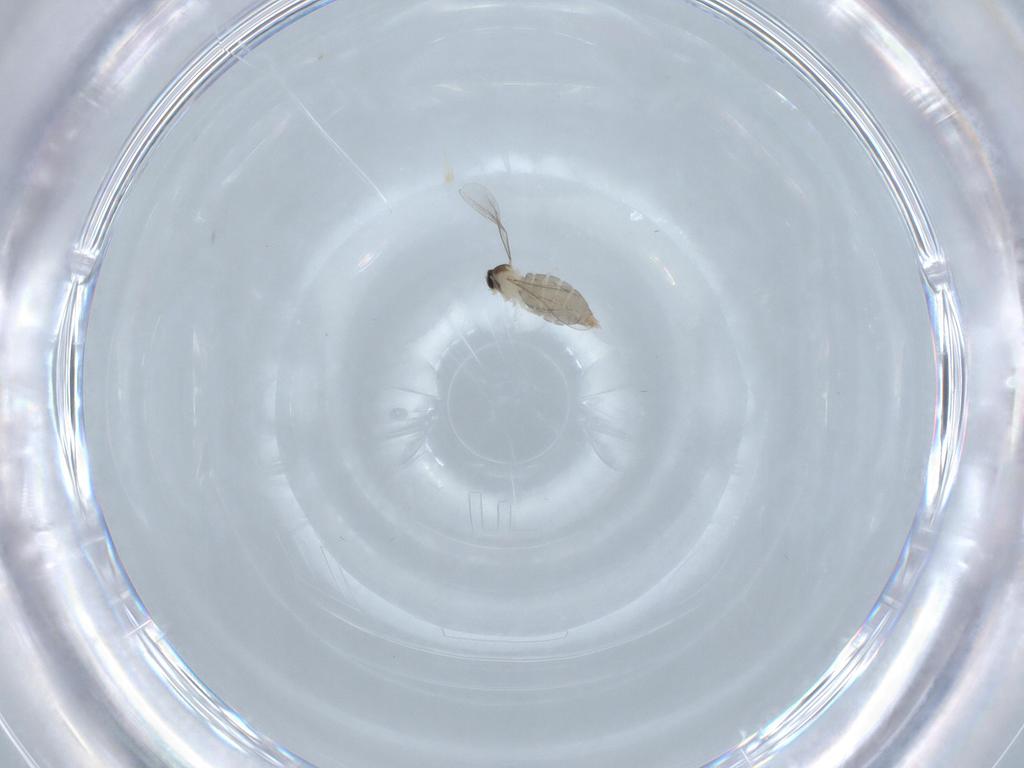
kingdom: Animalia
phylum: Arthropoda
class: Insecta
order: Diptera
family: Cecidomyiidae
